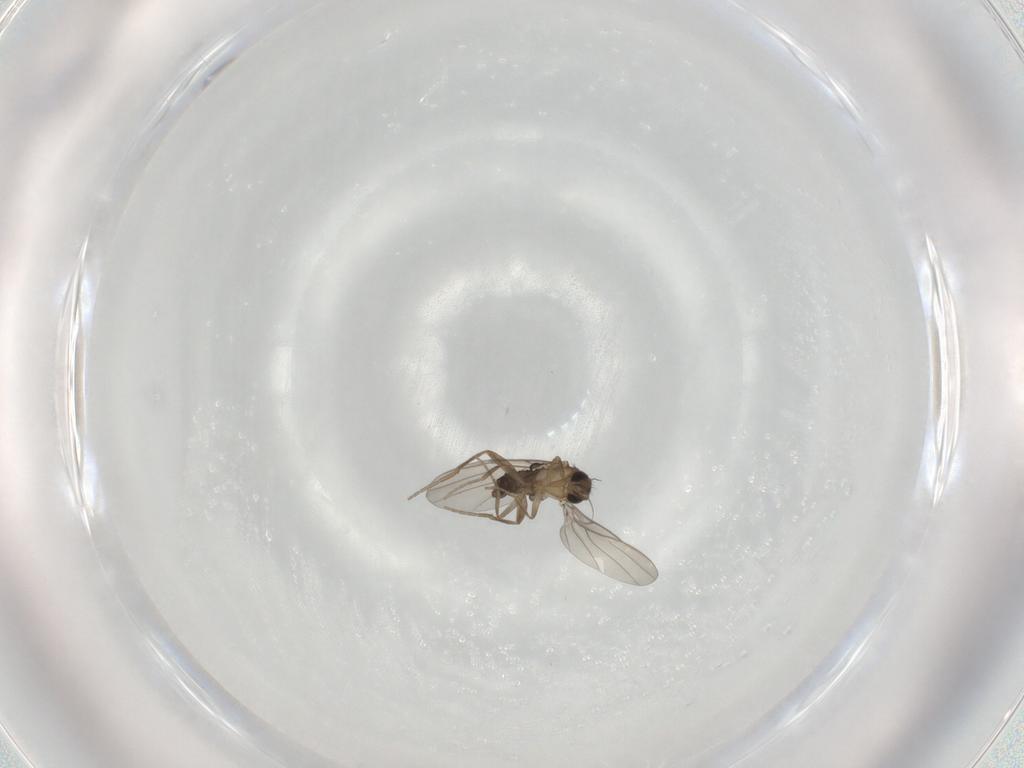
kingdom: Animalia
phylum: Arthropoda
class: Insecta
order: Diptera
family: Phoridae
